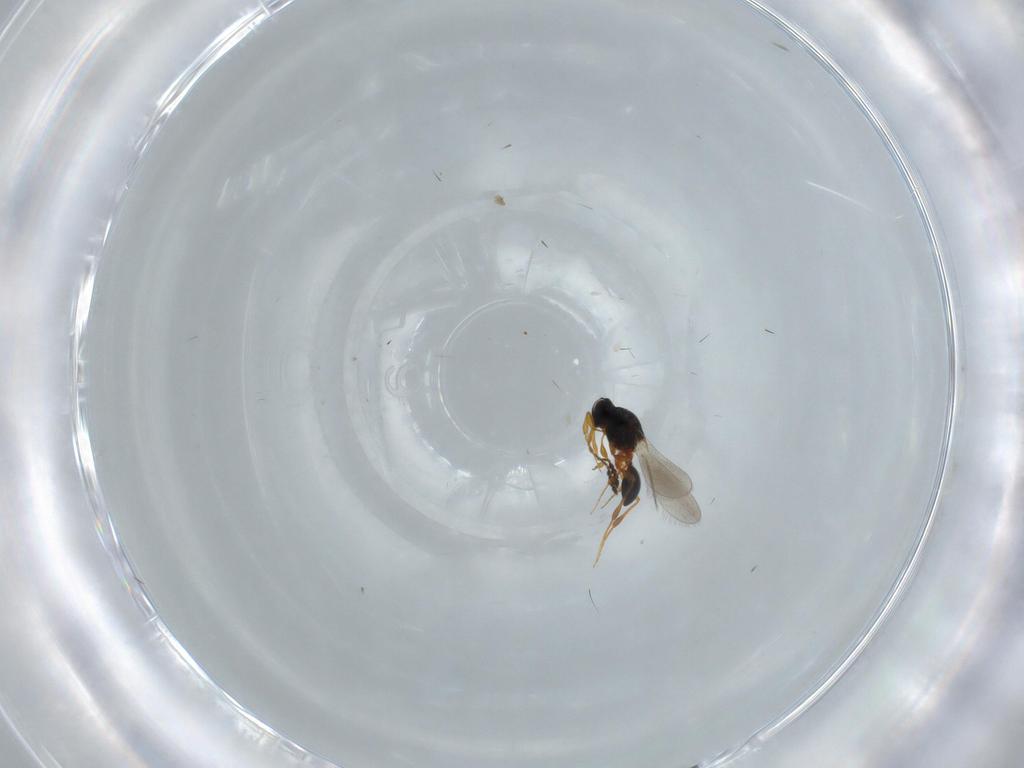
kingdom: Animalia
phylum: Arthropoda
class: Insecta
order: Hymenoptera
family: Platygastridae
